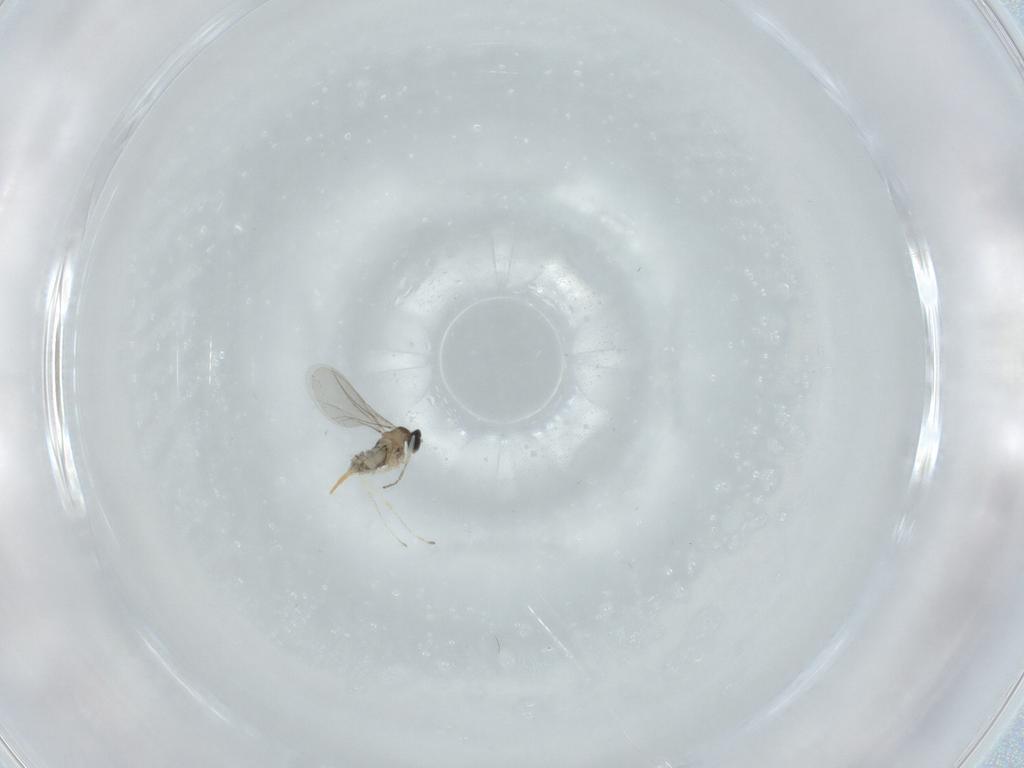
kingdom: Animalia
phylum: Arthropoda
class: Insecta
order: Diptera
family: Cecidomyiidae
